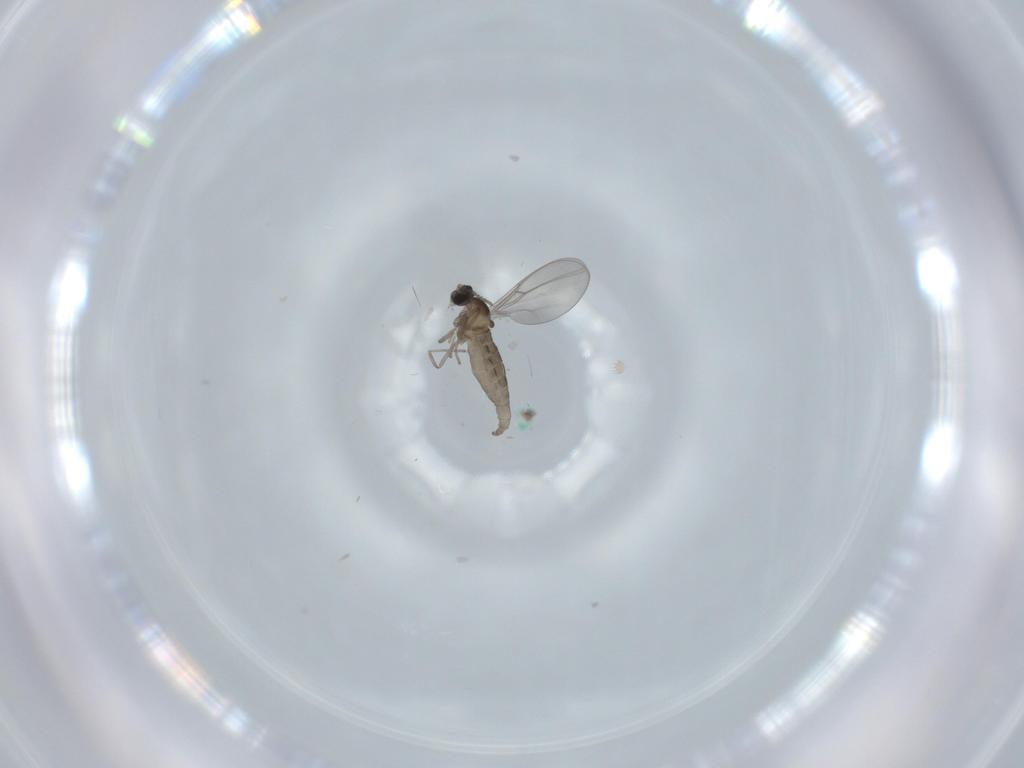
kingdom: Animalia
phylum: Arthropoda
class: Insecta
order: Diptera
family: Cecidomyiidae
